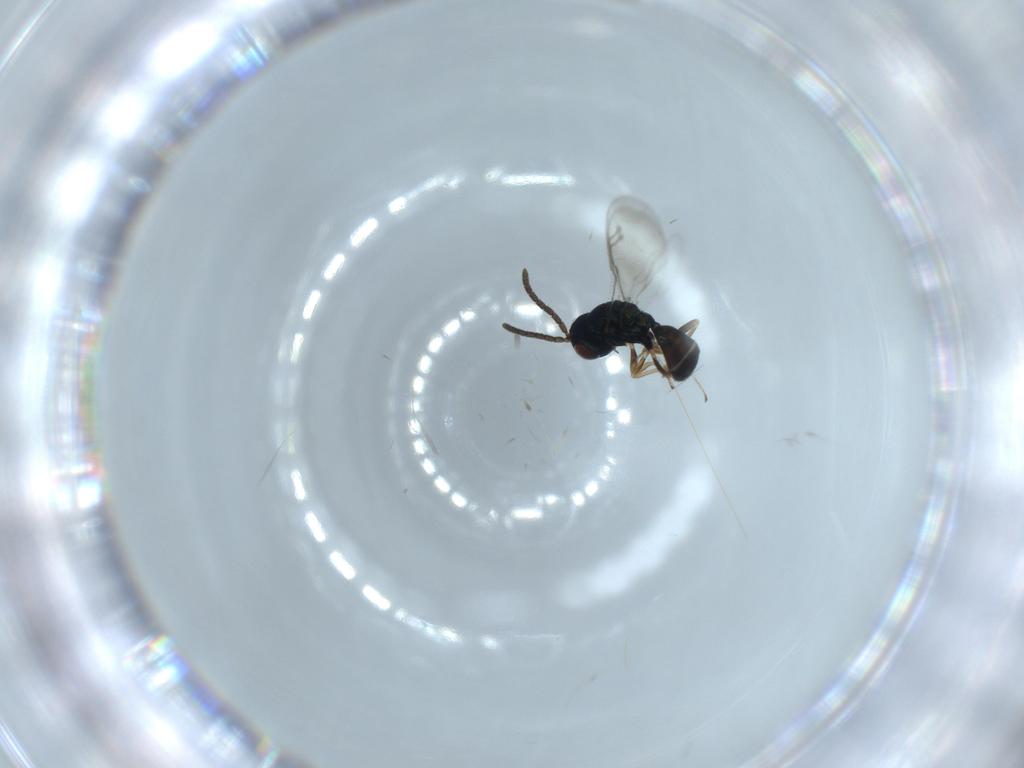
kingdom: Animalia
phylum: Arthropoda
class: Insecta
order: Hymenoptera
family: Pteromalidae
